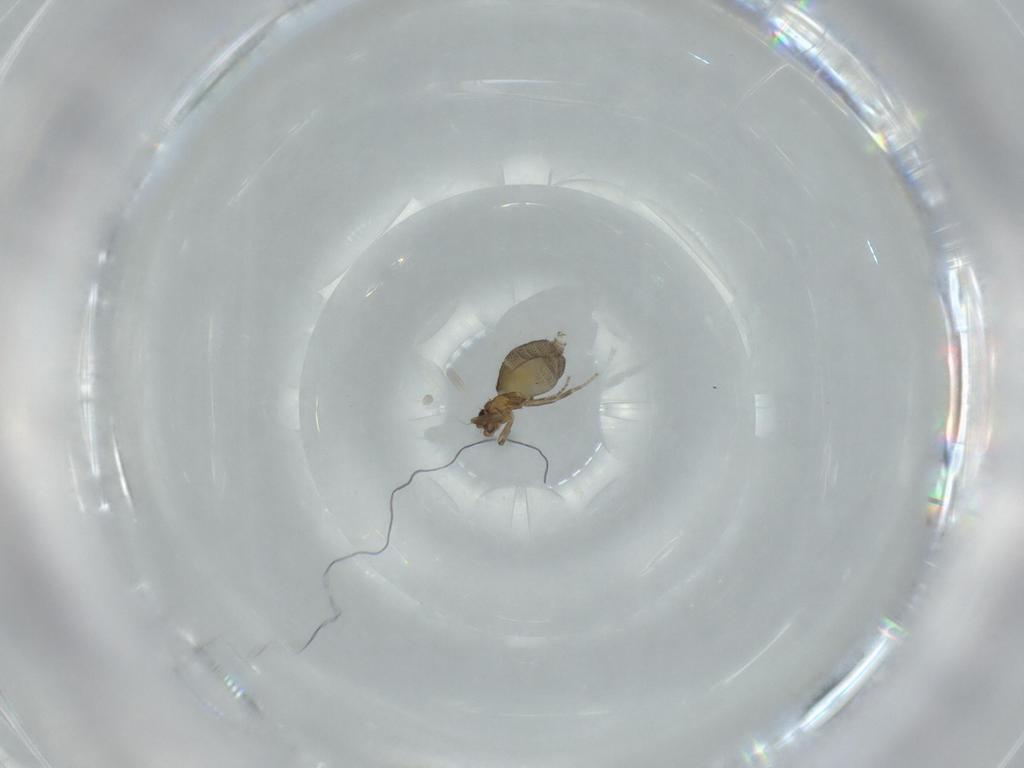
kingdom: Animalia
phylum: Arthropoda
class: Insecta
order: Diptera
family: Phoridae
